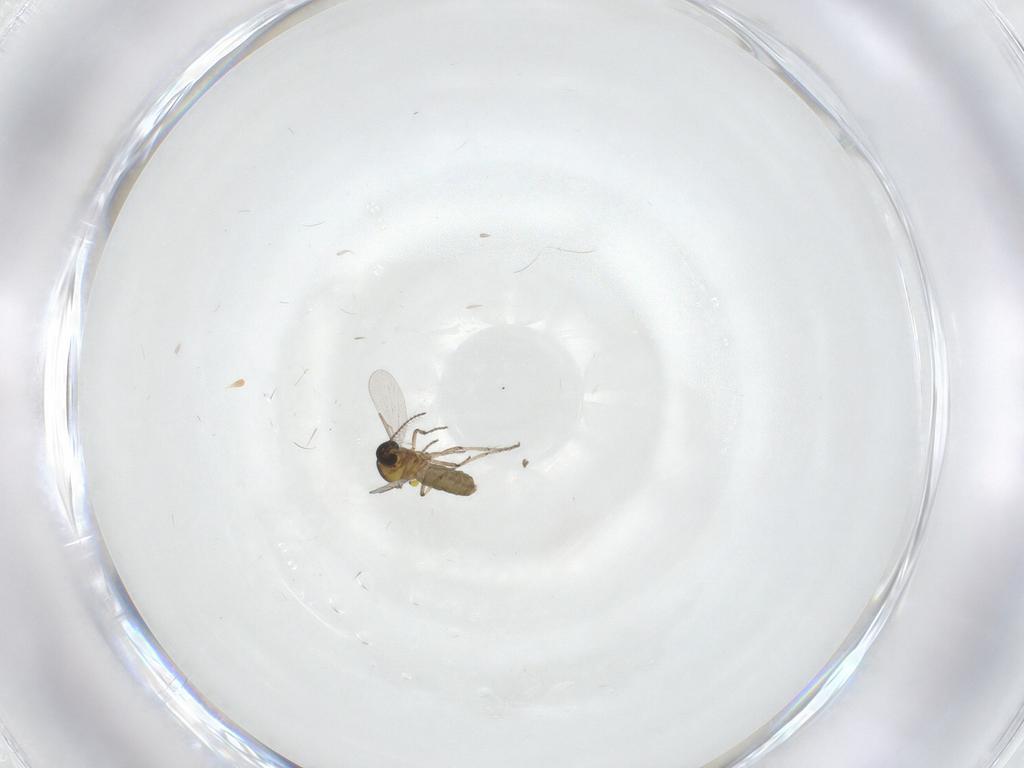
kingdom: Animalia
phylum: Arthropoda
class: Insecta
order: Diptera
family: Ceratopogonidae
